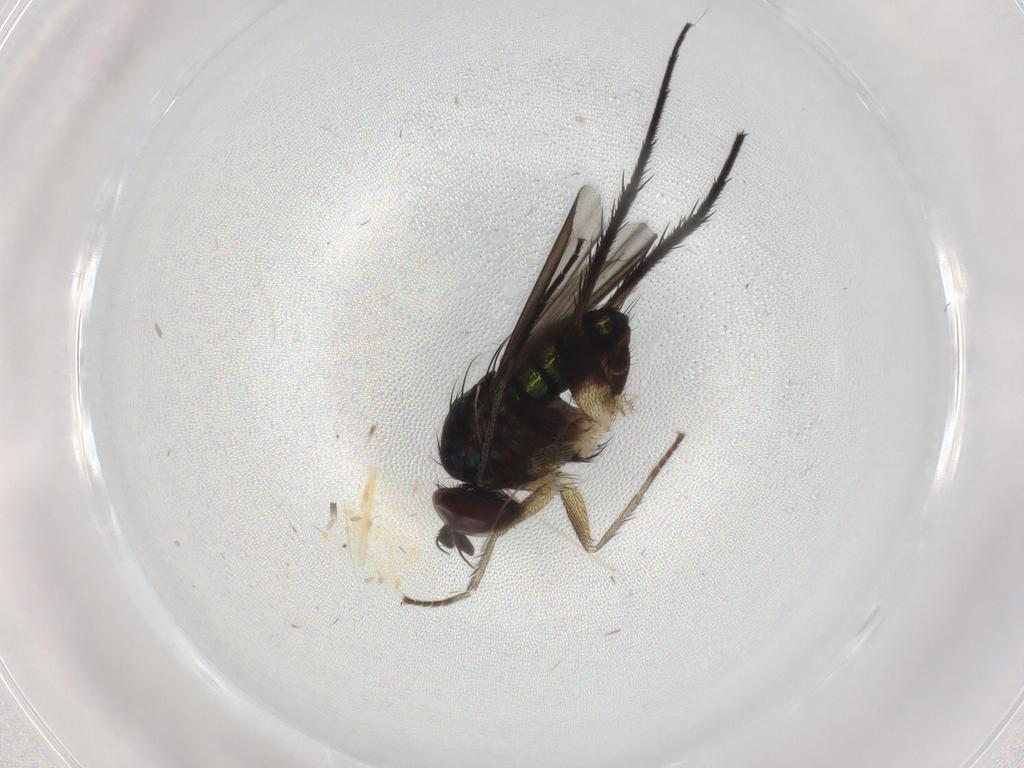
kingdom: Animalia
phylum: Arthropoda
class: Insecta
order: Diptera
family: Dolichopodidae
